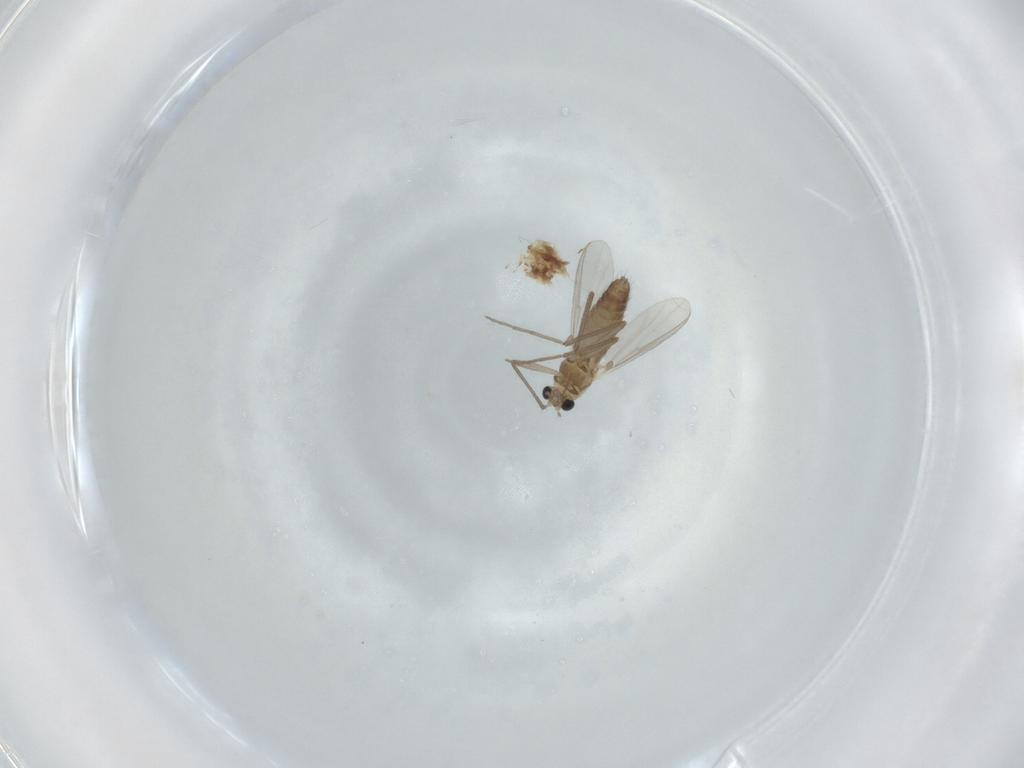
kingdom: Animalia
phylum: Arthropoda
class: Insecta
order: Diptera
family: Chironomidae
